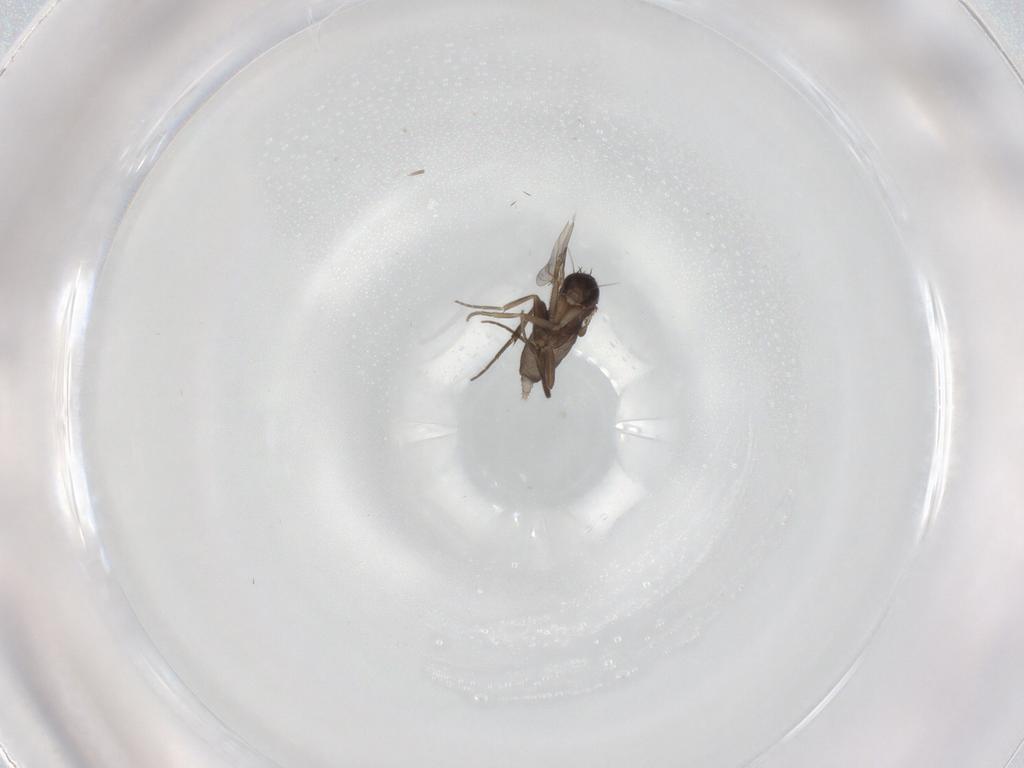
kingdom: Animalia
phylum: Arthropoda
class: Insecta
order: Diptera
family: Phoridae
